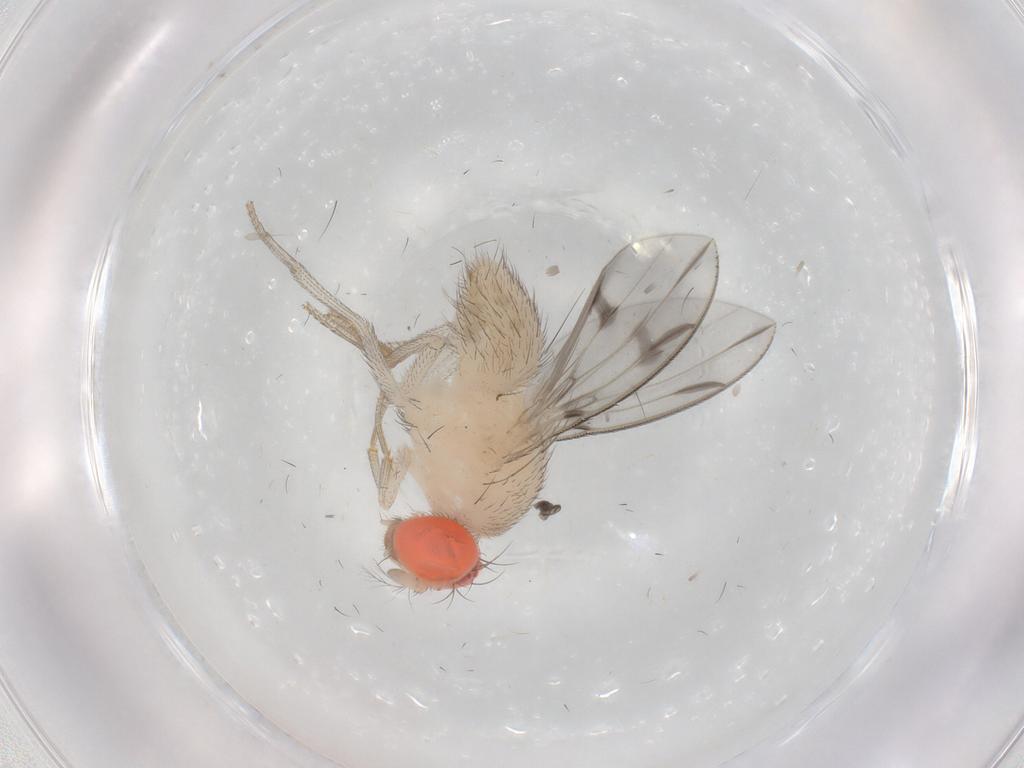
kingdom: Animalia
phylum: Arthropoda
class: Insecta
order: Diptera
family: Drosophilidae
